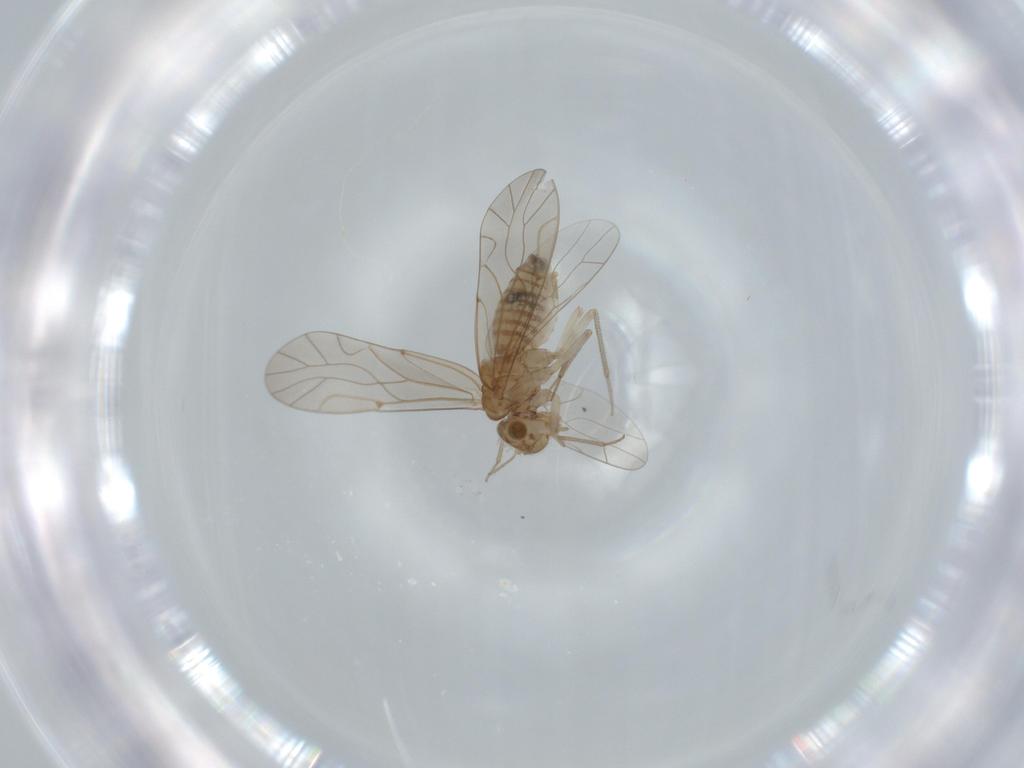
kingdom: Animalia
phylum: Arthropoda
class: Insecta
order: Psocodea
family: Lachesillidae
